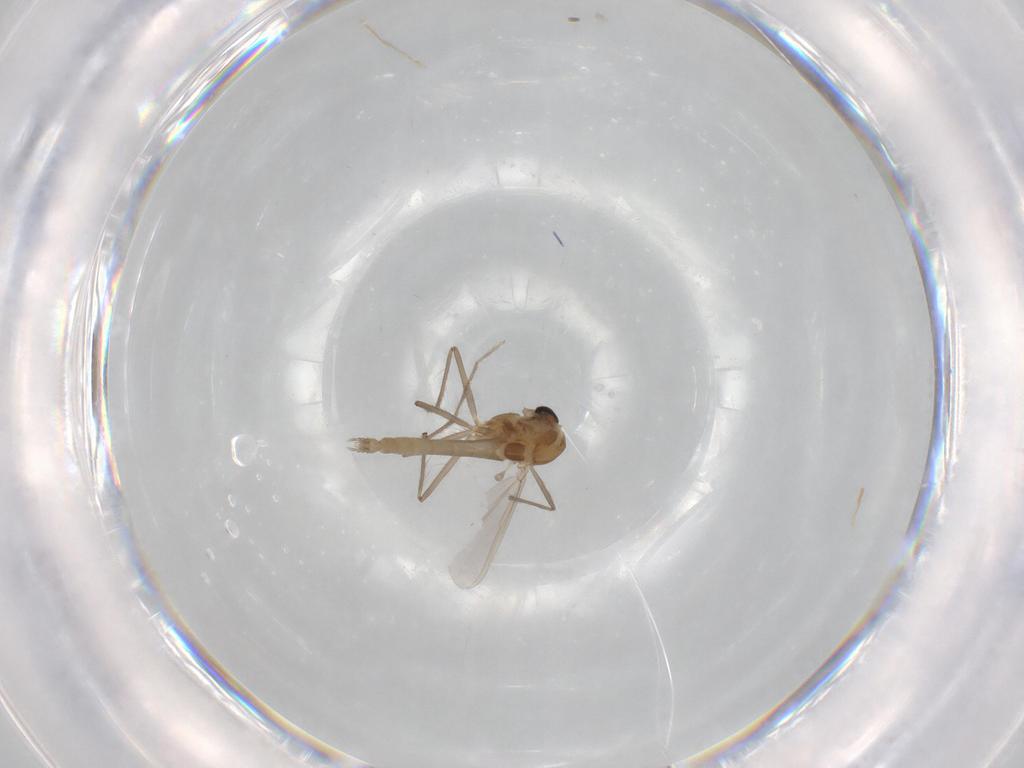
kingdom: Animalia
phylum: Arthropoda
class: Insecta
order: Diptera
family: Chironomidae
